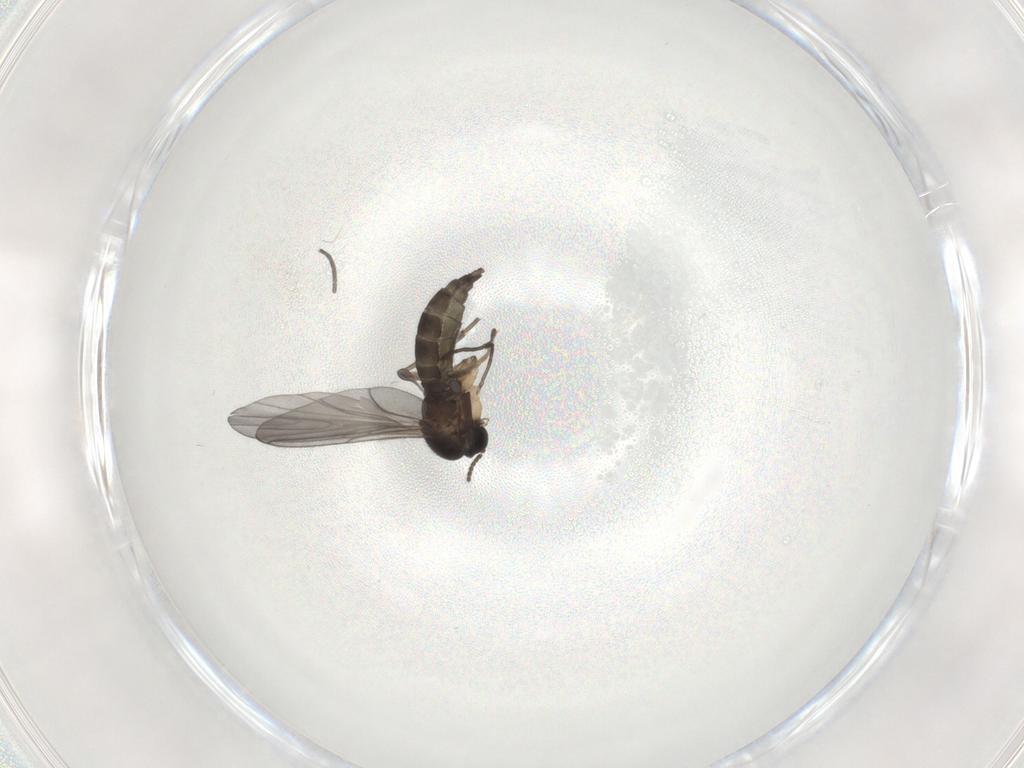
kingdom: Animalia
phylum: Arthropoda
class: Insecta
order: Diptera
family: Sciaridae
